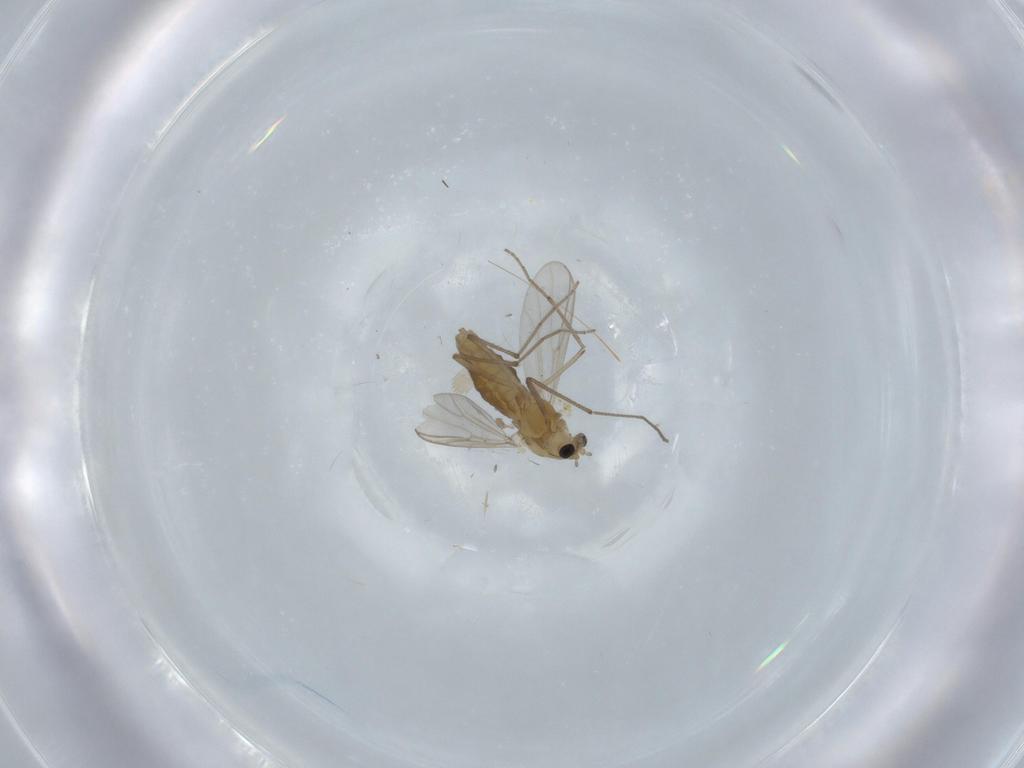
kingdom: Animalia
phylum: Arthropoda
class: Insecta
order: Diptera
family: Chironomidae
